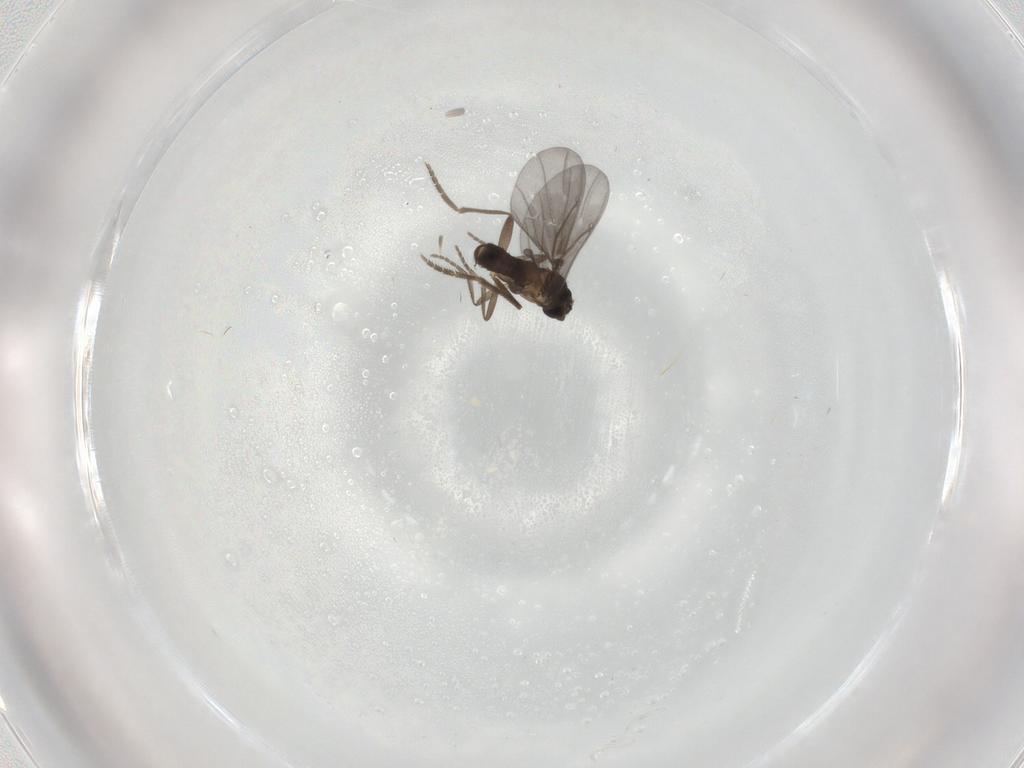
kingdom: Animalia
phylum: Arthropoda
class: Insecta
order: Diptera
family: Phoridae
